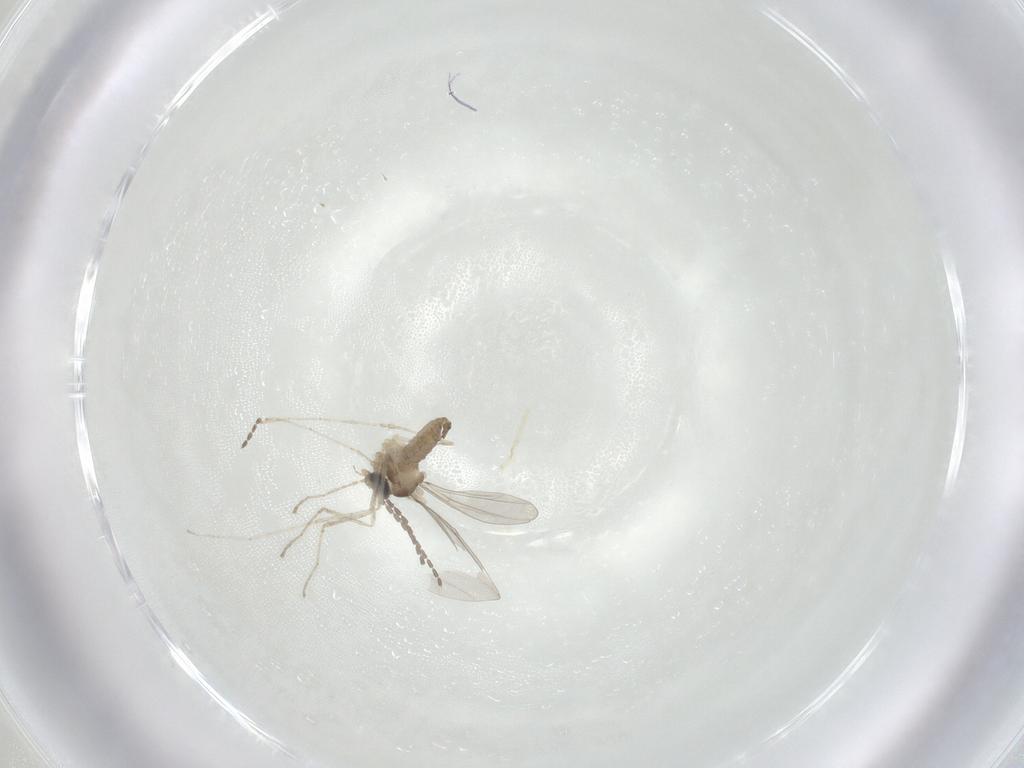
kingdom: Animalia
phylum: Arthropoda
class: Insecta
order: Diptera
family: Cecidomyiidae
